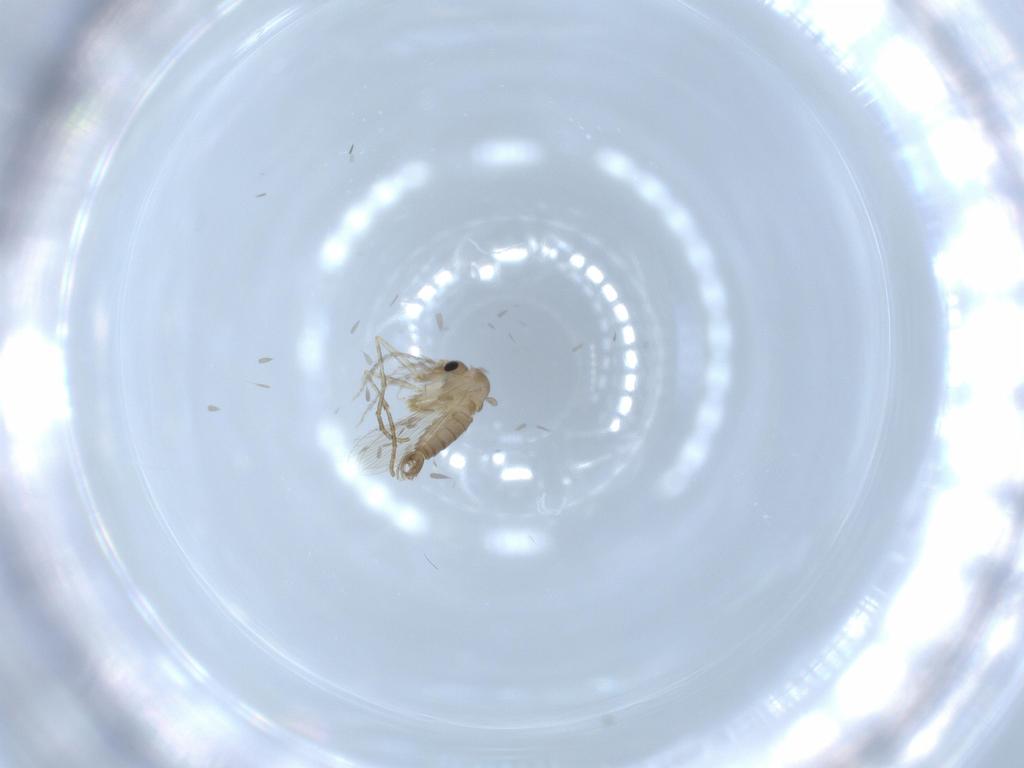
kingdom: Animalia
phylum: Arthropoda
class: Insecta
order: Diptera
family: Psychodidae
